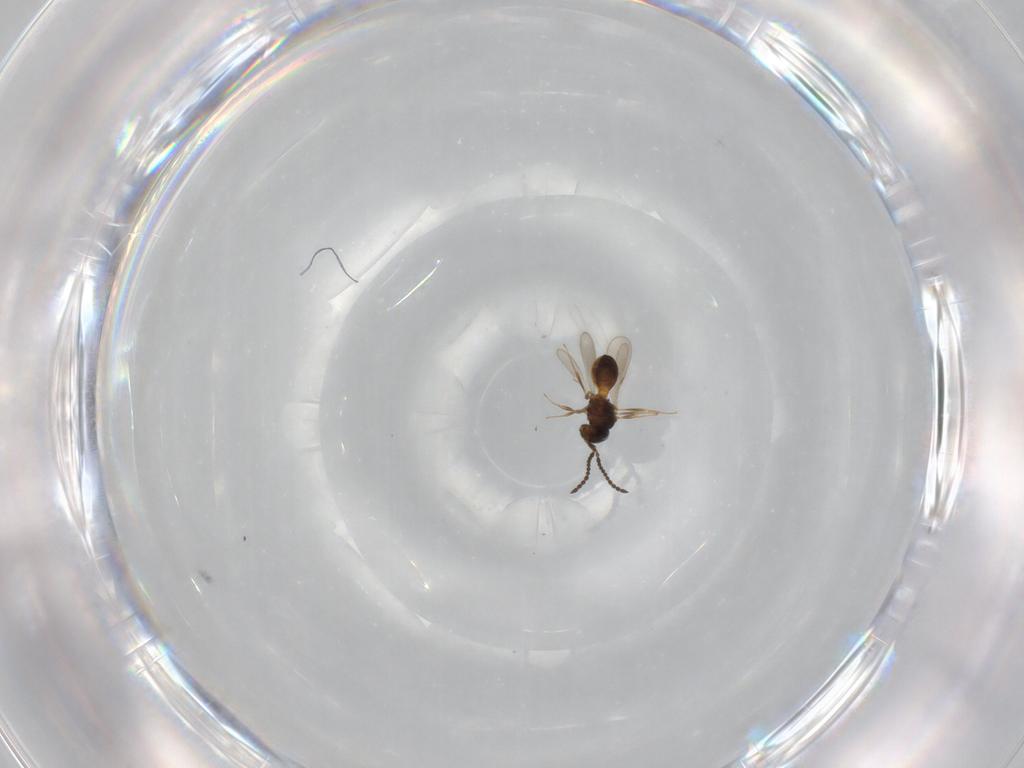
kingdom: Animalia
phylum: Arthropoda
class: Insecta
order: Hymenoptera
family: Scelionidae
